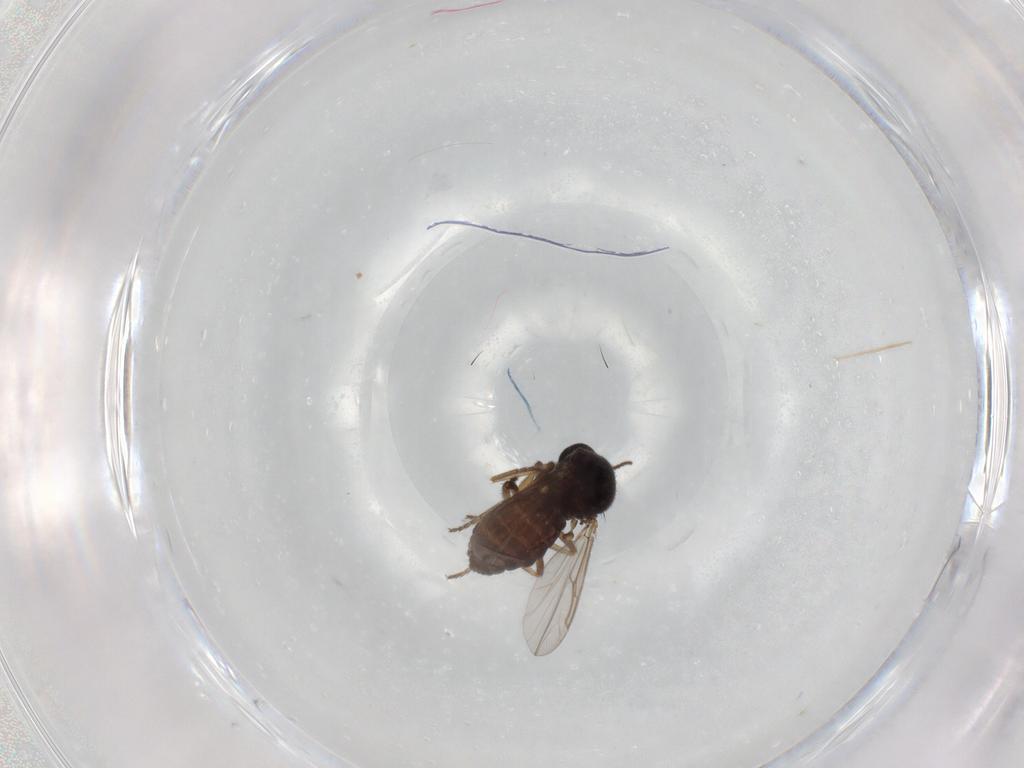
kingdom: Animalia
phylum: Arthropoda
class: Insecta
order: Diptera
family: Ceratopogonidae
